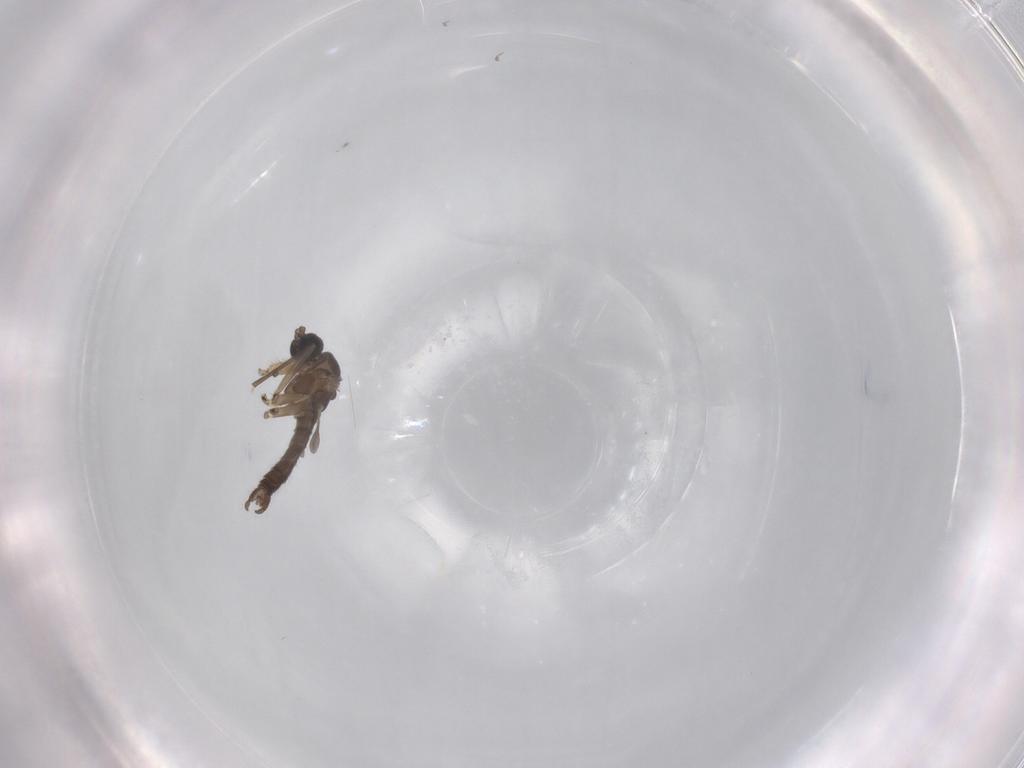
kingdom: Animalia
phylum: Arthropoda
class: Insecta
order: Diptera
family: Sciaridae
